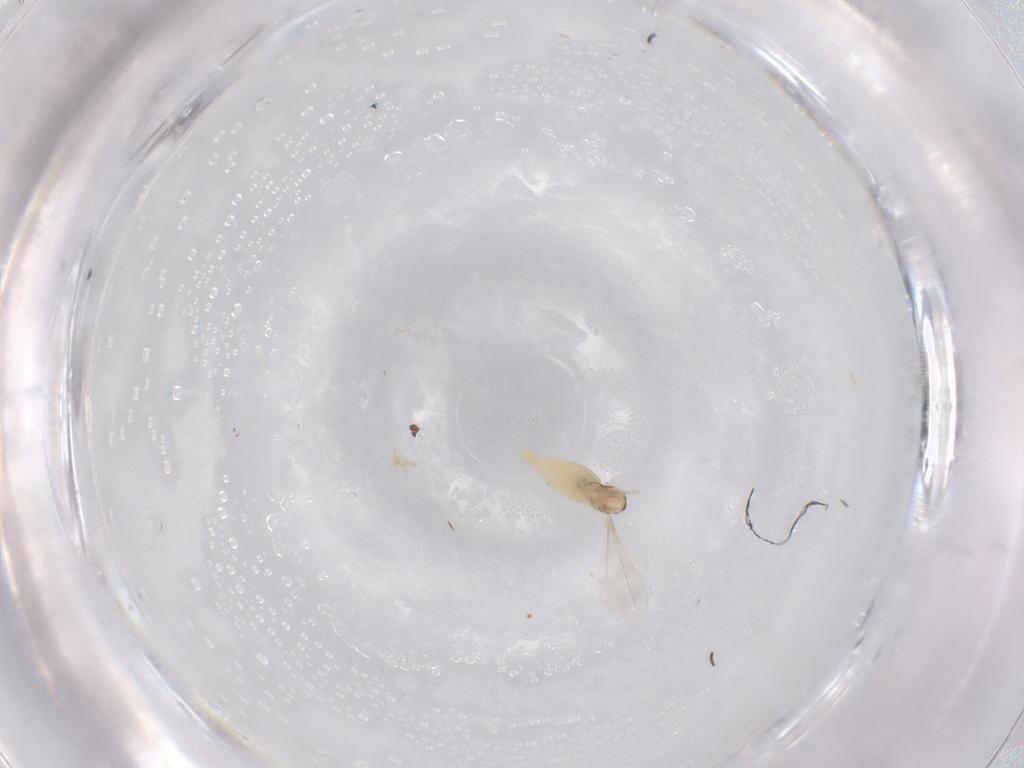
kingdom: Animalia
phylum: Arthropoda
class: Insecta
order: Diptera
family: Cecidomyiidae
